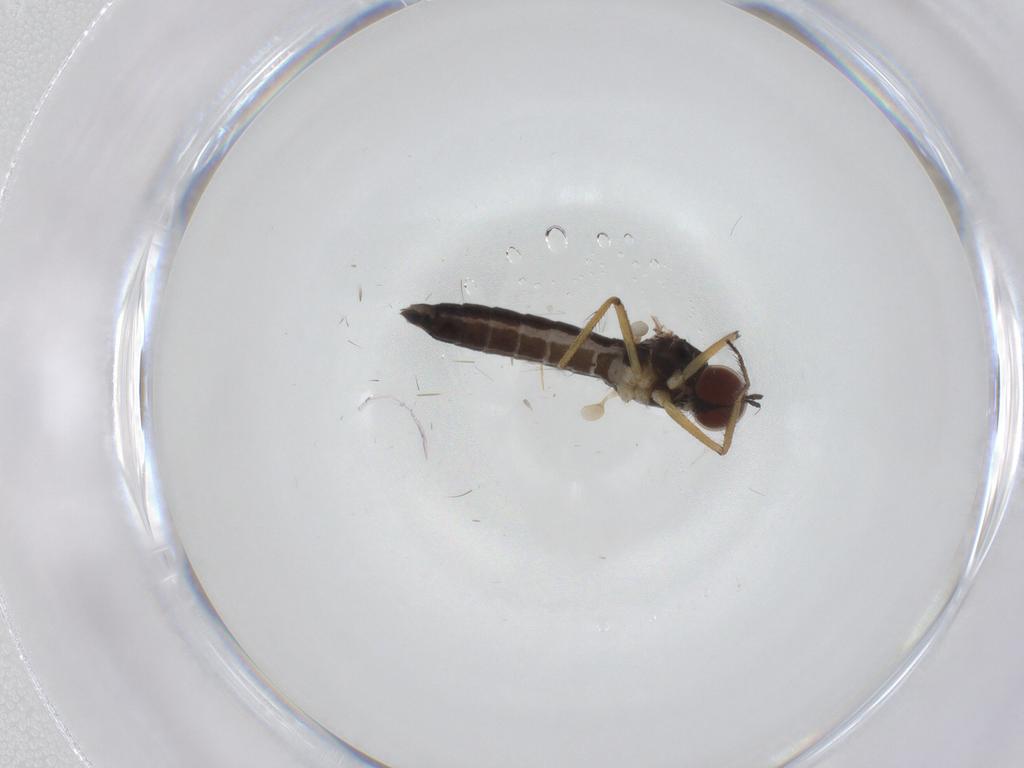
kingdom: Animalia
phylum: Arthropoda
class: Insecta
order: Diptera
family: Hybotidae
